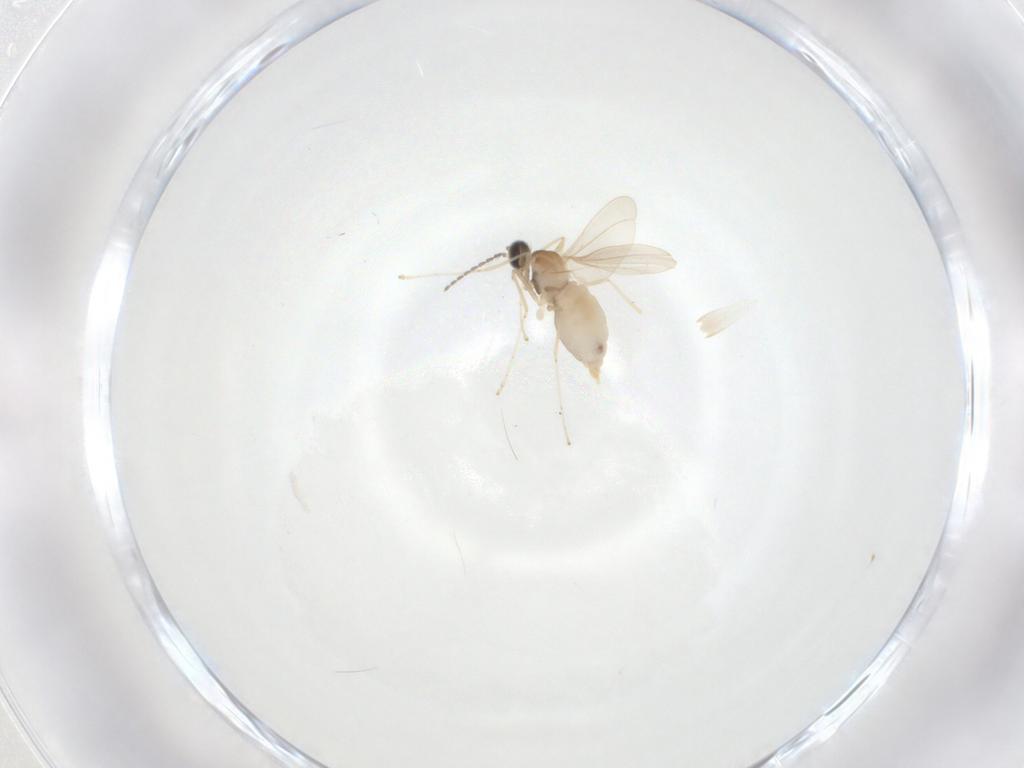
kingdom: Animalia
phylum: Arthropoda
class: Insecta
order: Diptera
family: Cecidomyiidae
